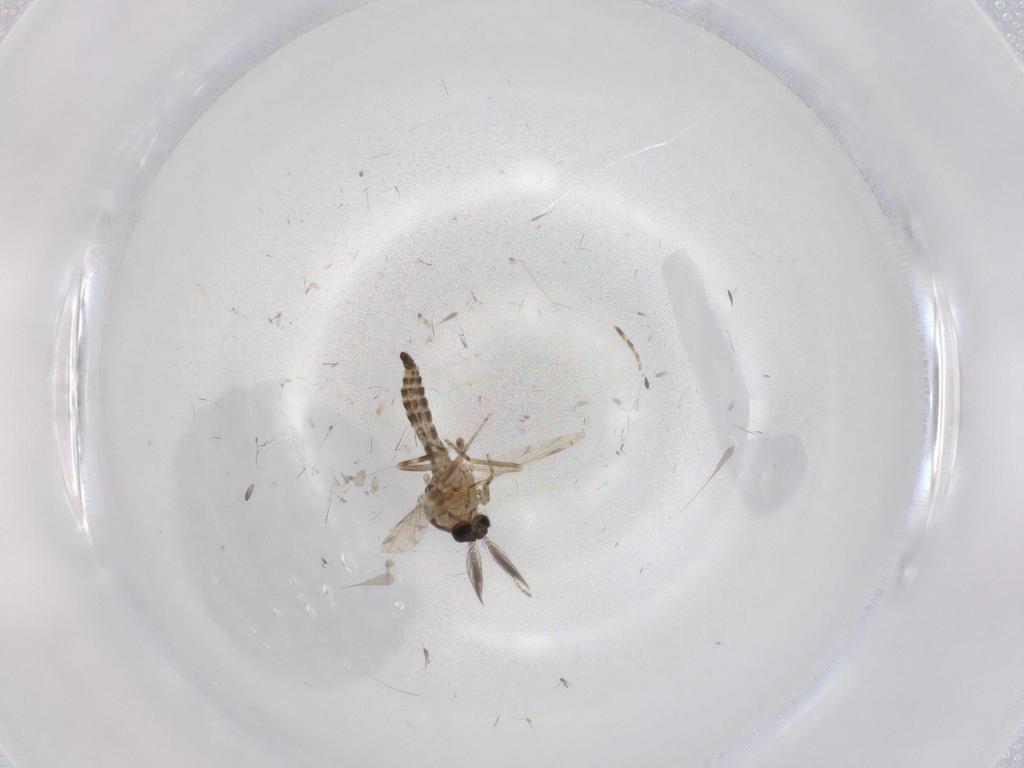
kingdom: Animalia
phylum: Arthropoda
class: Insecta
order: Diptera
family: Ceratopogonidae
